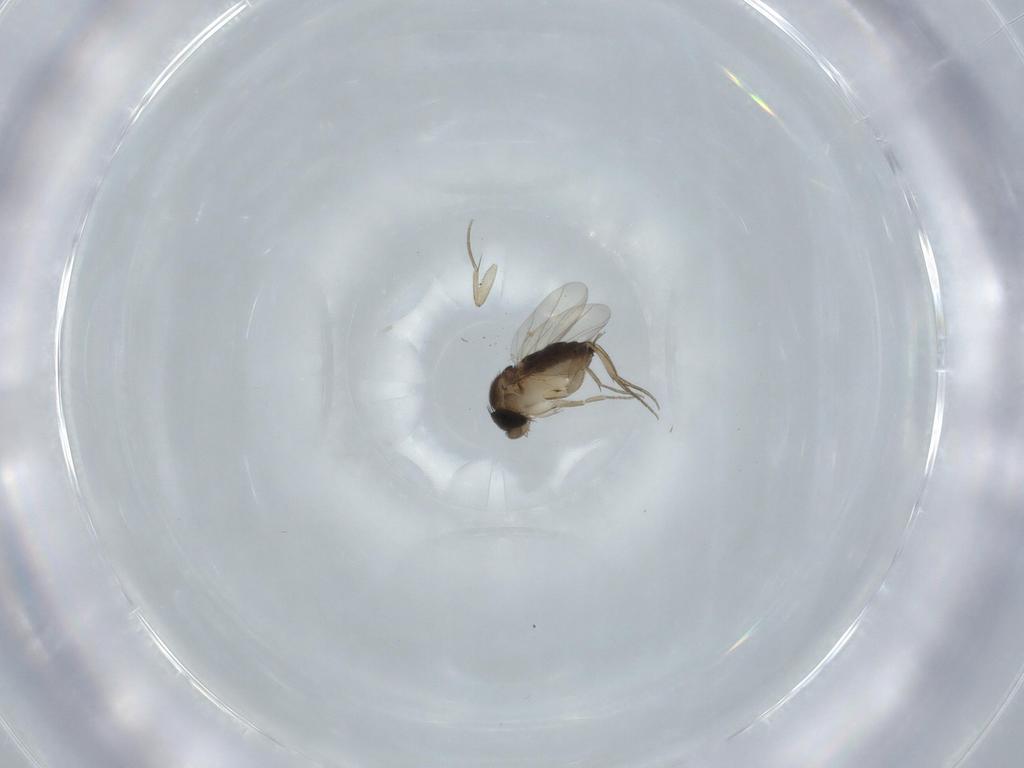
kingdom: Animalia
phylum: Arthropoda
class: Insecta
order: Diptera
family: Phoridae
